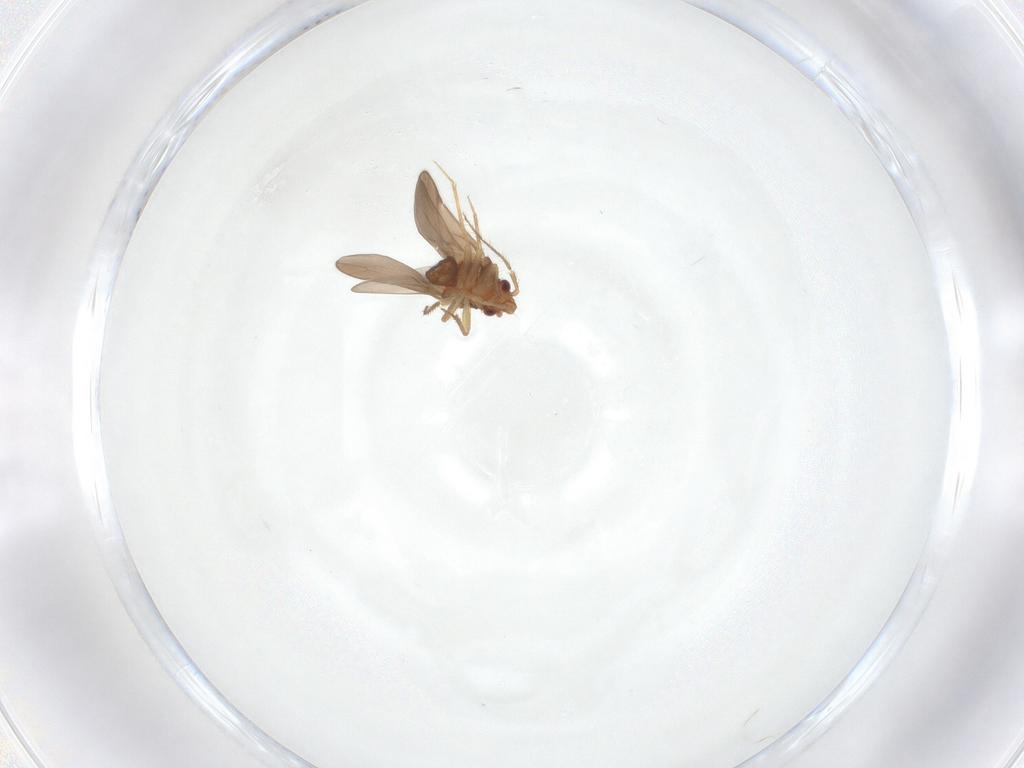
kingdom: Animalia
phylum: Arthropoda
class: Insecta
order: Hemiptera
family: Ceratocombidae
